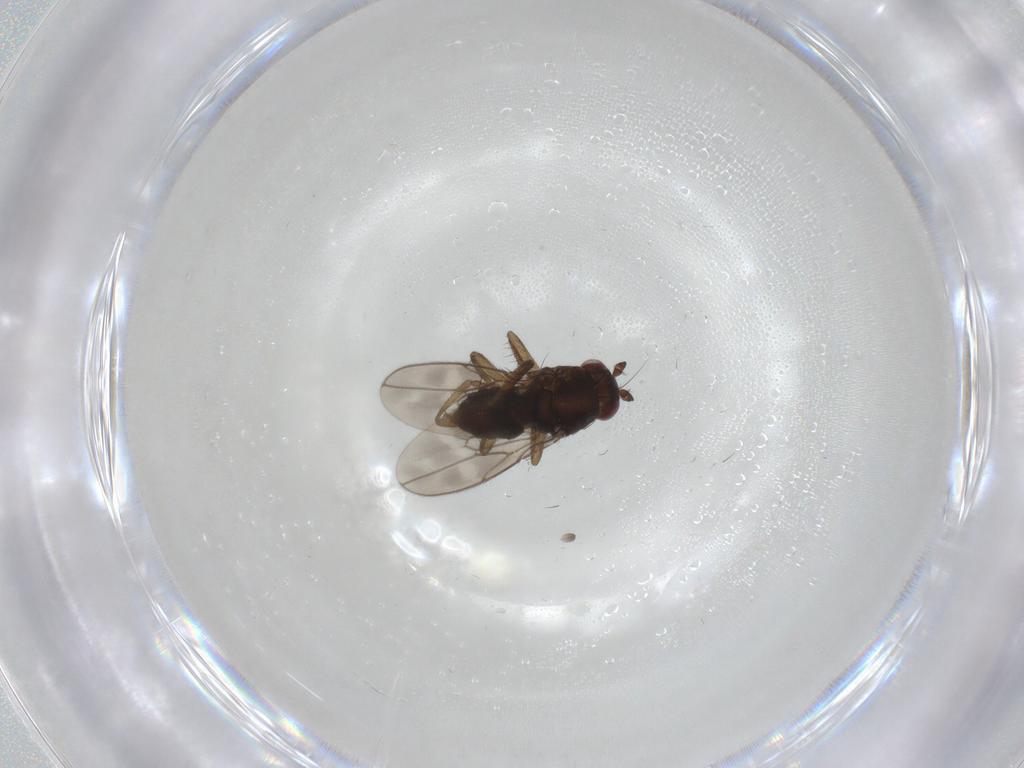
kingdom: Animalia
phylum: Arthropoda
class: Insecta
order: Diptera
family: Sphaeroceridae
